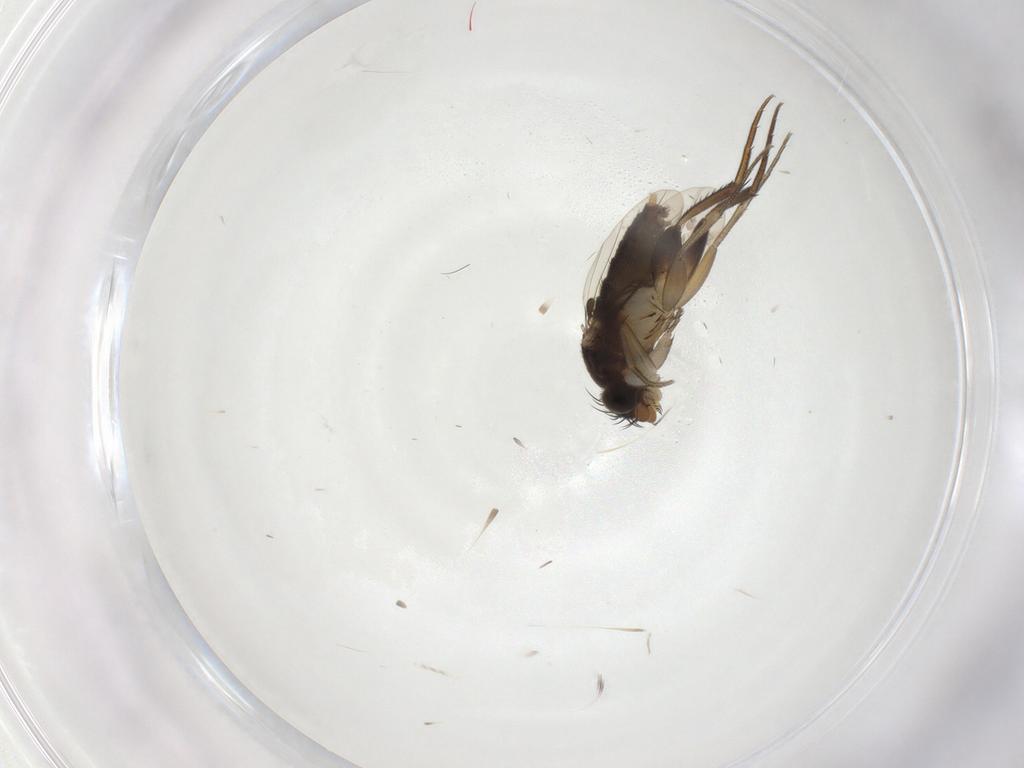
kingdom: Animalia
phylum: Arthropoda
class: Insecta
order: Diptera
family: Phoridae
